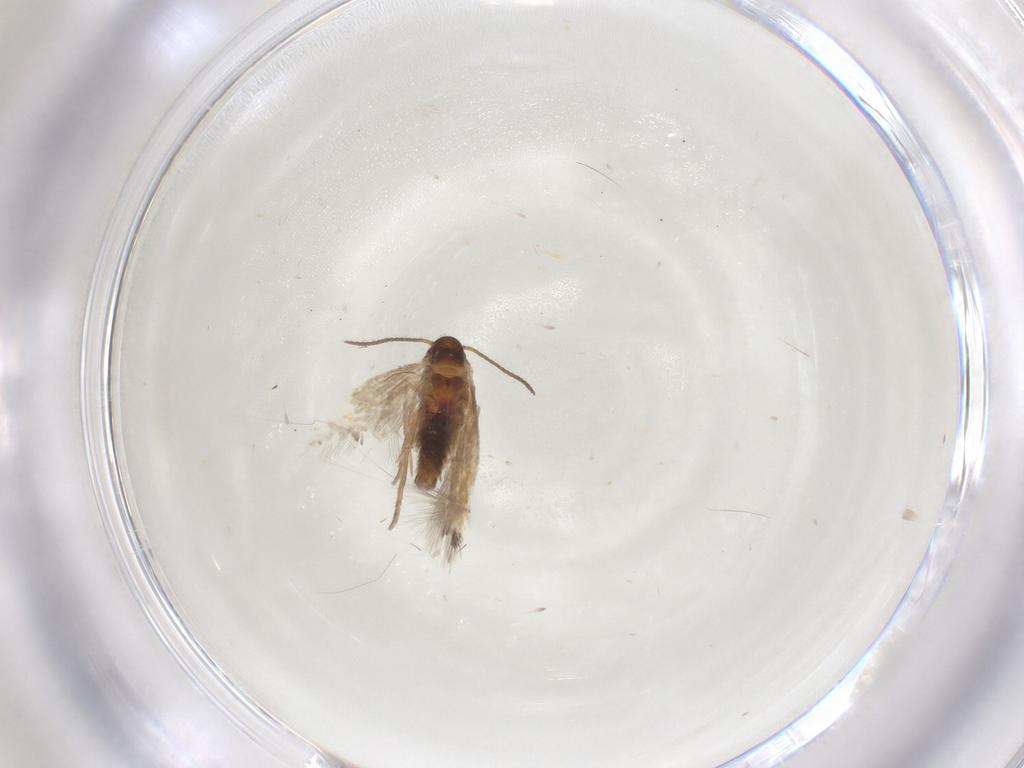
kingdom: Animalia
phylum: Arthropoda
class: Insecta
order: Lepidoptera
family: Heliozelidae
